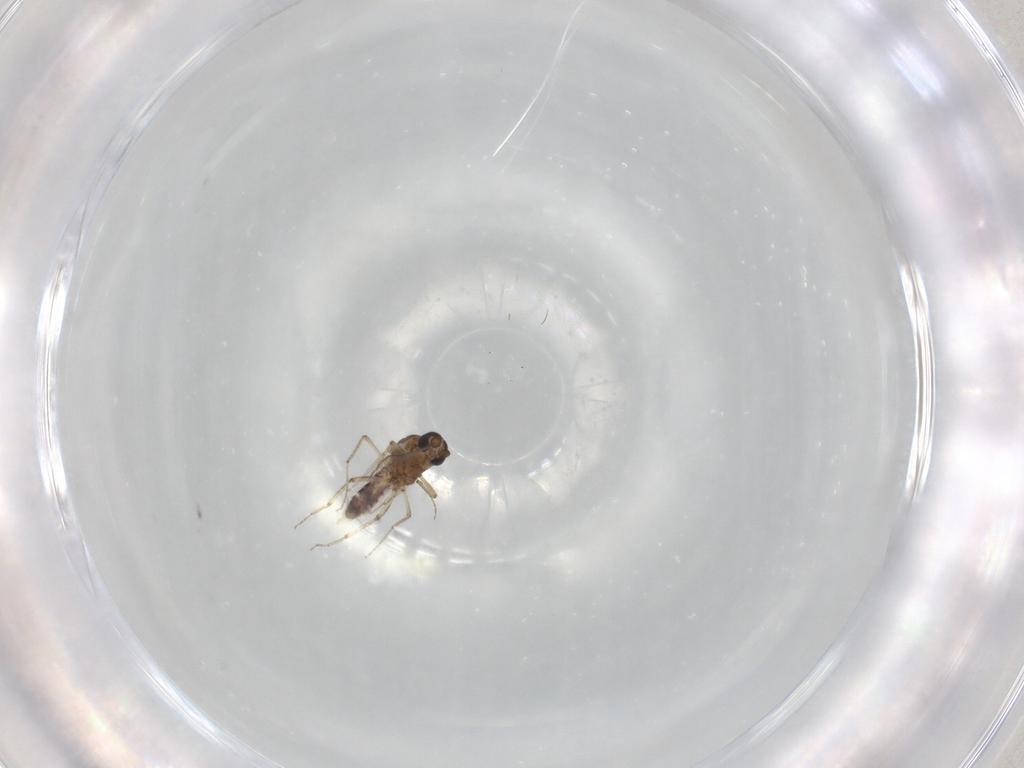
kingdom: Animalia
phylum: Arthropoda
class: Insecta
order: Diptera
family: Ceratopogonidae
